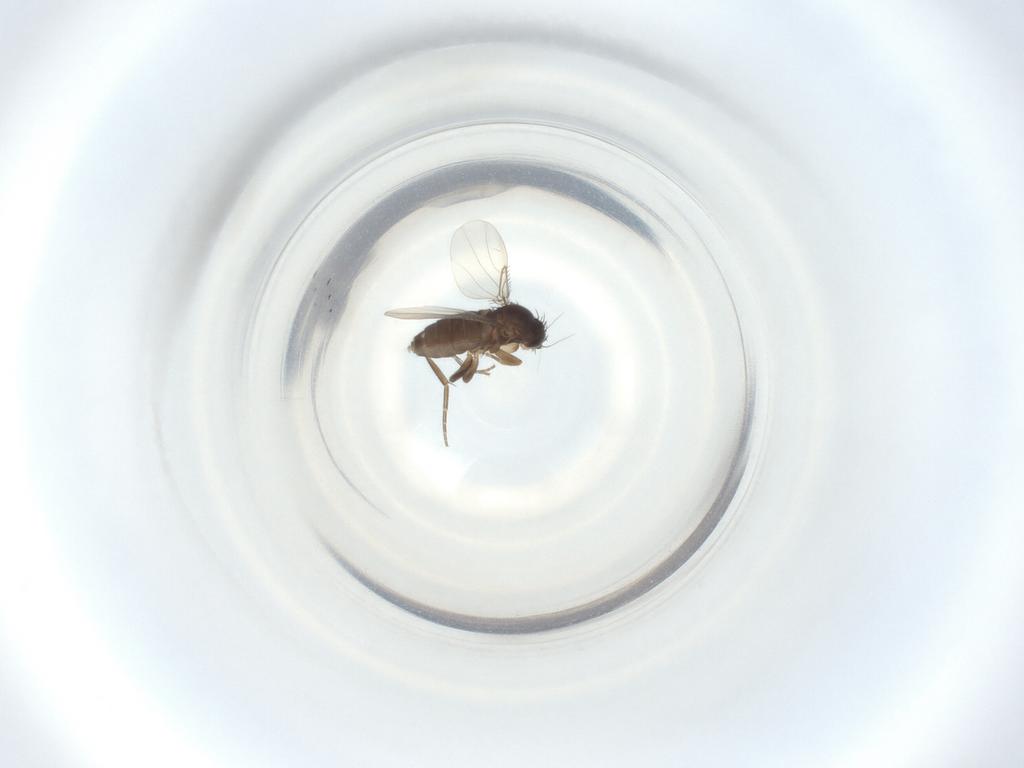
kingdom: Animalia
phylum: Arthropoda
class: Insecta
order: Diptera
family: Phoridae
